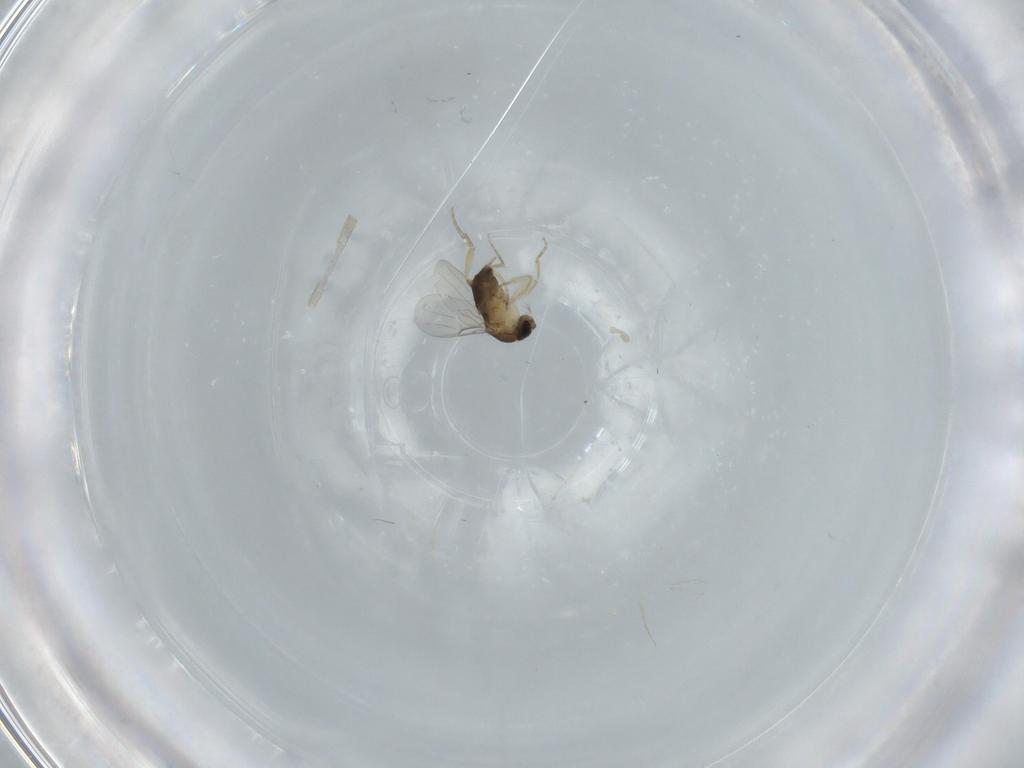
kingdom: Animalia
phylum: Arthropoda
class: Insecta
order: Diptera
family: Phoridae
